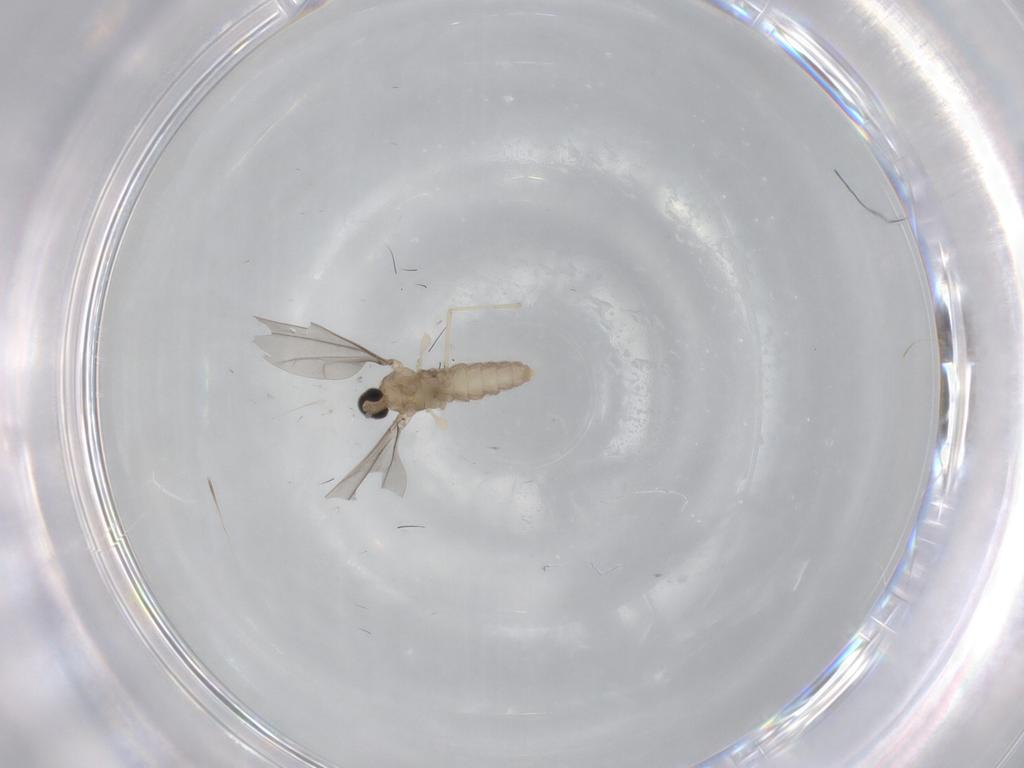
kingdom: Animalia
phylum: Arthropoda
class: Insecta
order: Diptera
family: Cecidomyiidae
